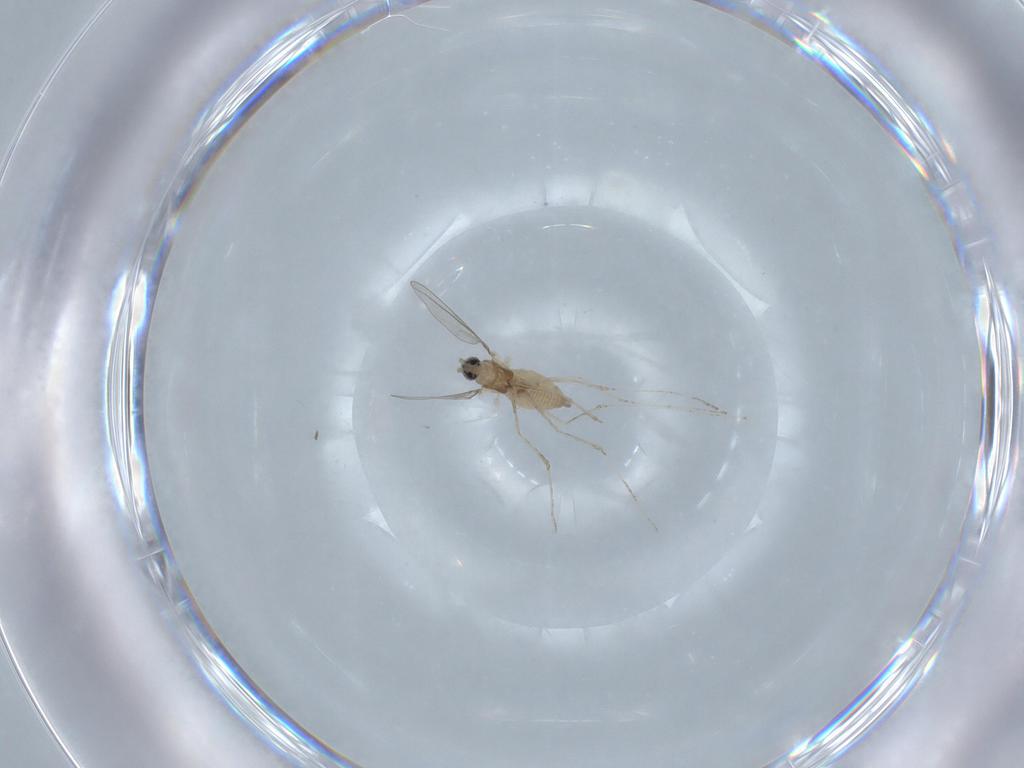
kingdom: Animalia
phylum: Arthropoda
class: Insecta
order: Diptera
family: Cecidomyiidae
